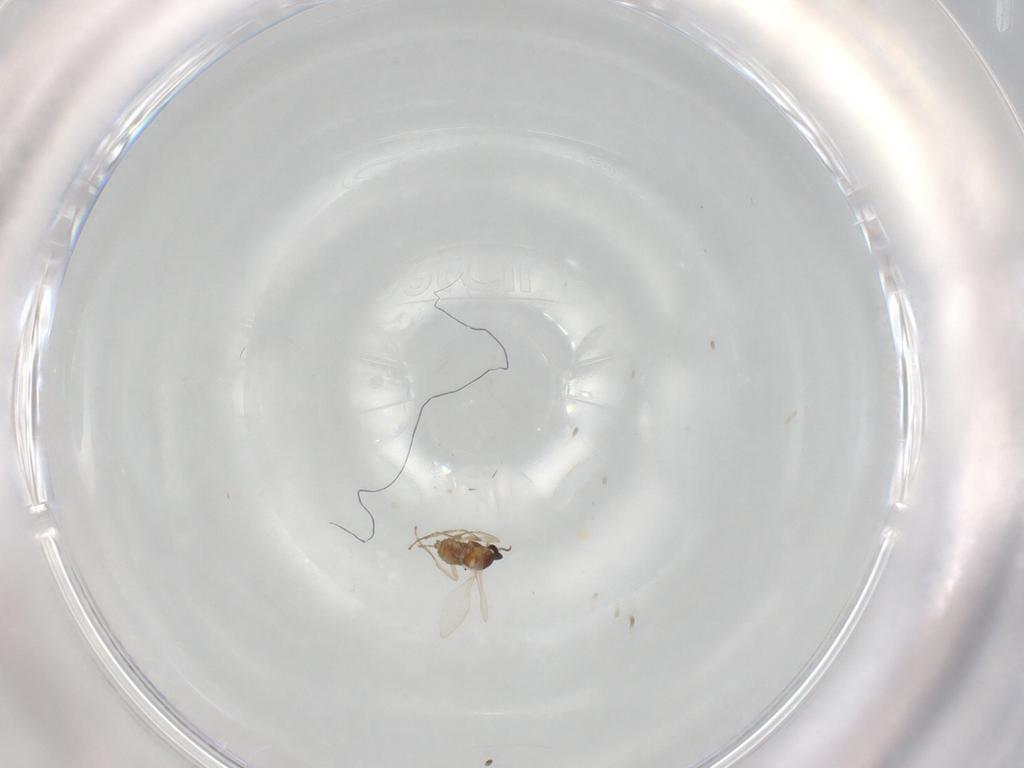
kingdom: Animalia
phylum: Arthropoda
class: Insecta
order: Diptera
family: Cecidomyiidae
